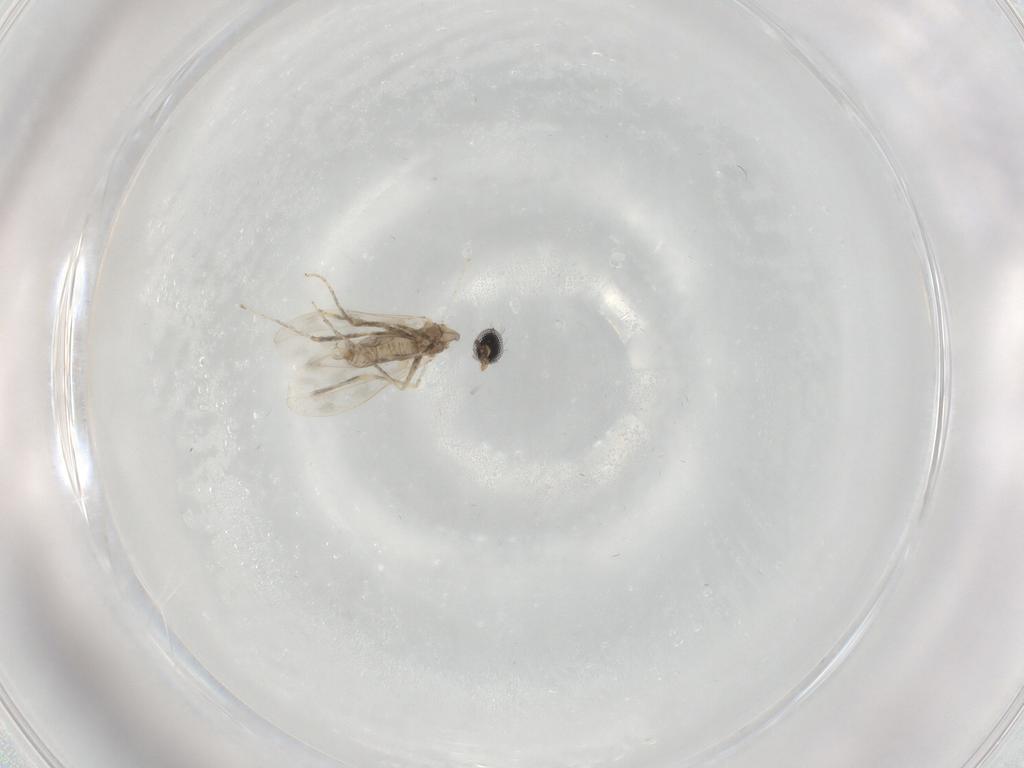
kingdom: Animalia
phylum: Arthropoda
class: Insecta
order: Diptera
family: Cecidomyiidae
